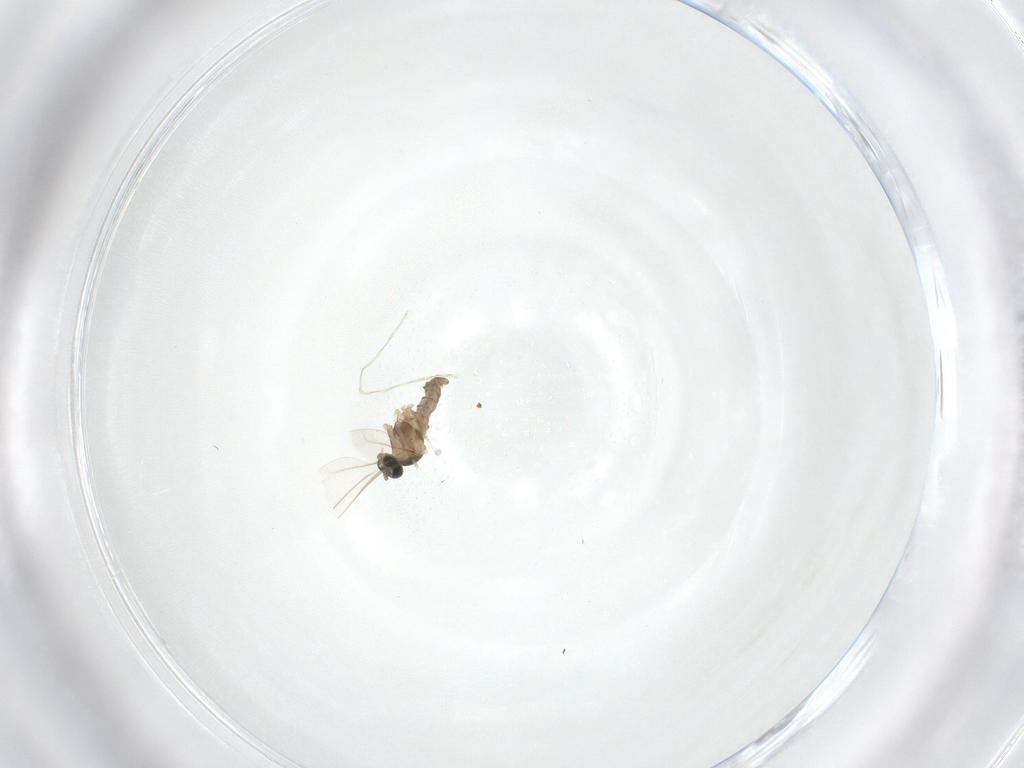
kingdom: Animalia
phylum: Arthropoda
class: Insecta
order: Diptera
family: Cecidomyiidae
